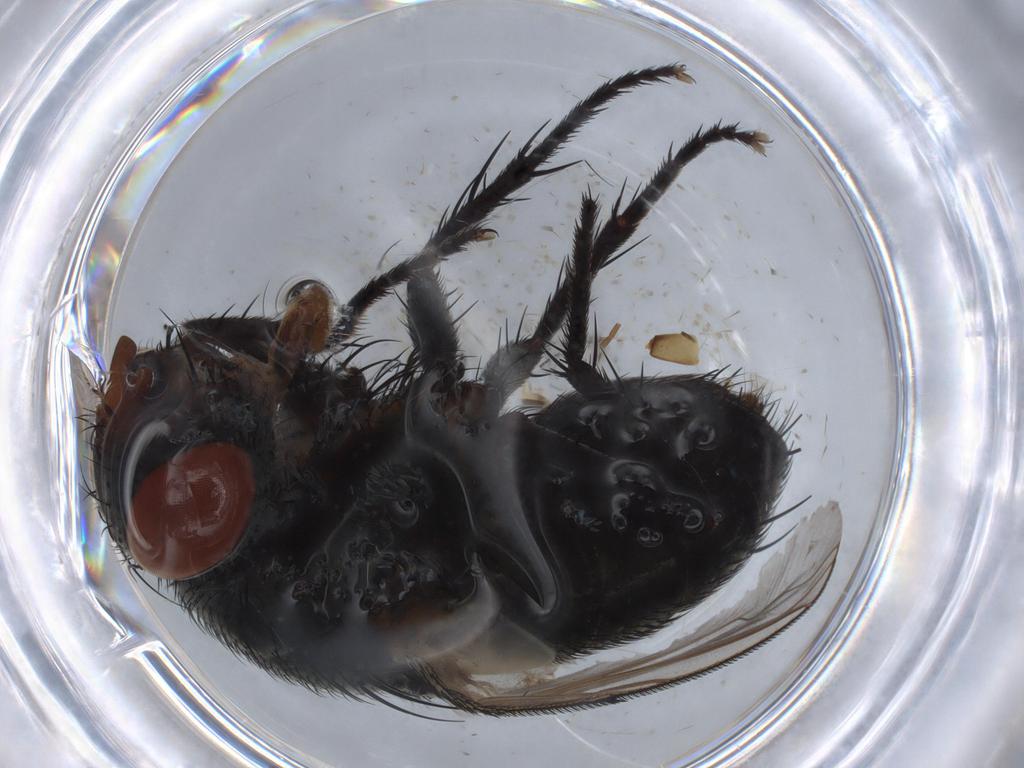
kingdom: Animalia
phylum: Arthropoda
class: Insecta
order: Diptera
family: Sarcophagidae
